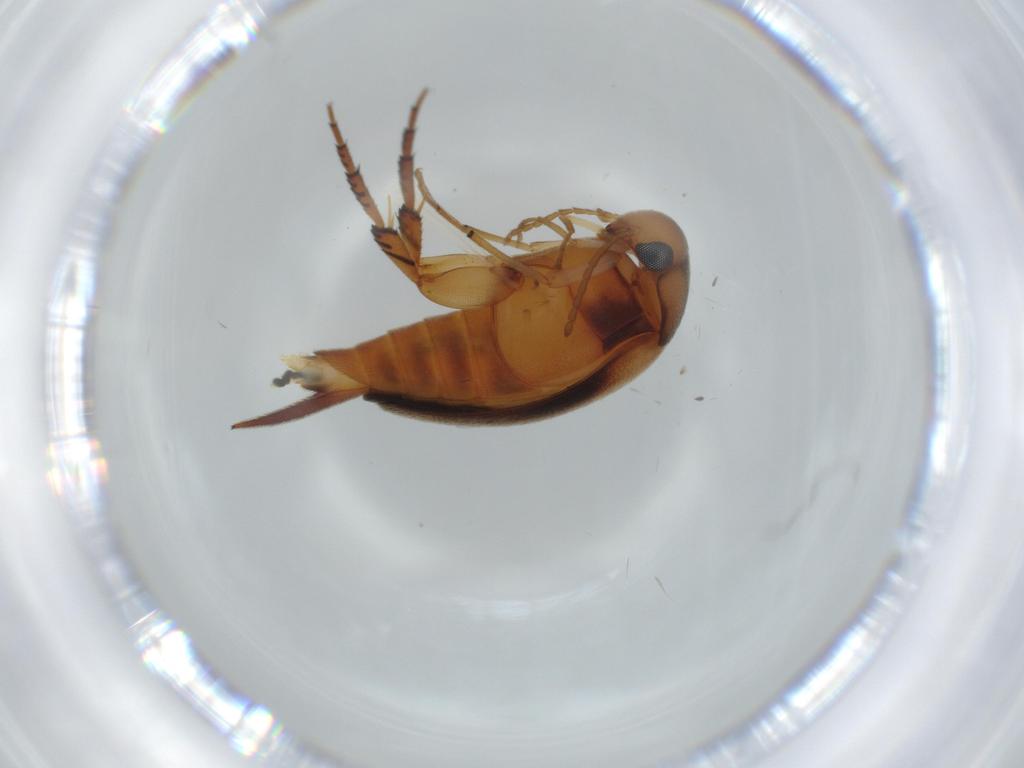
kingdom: Animalia
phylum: Arthropoda
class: Insecta
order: Coleoptera
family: Mordellidae
